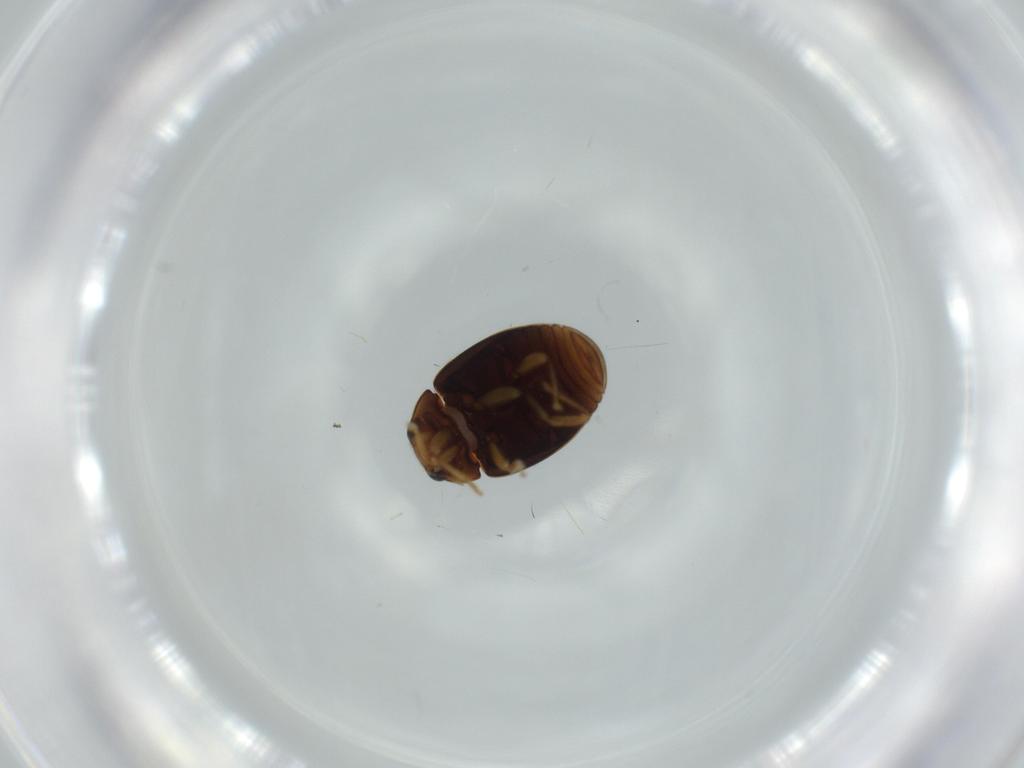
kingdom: Animalia
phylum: Arthropoda
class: Insecta
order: Coleoptera
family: Coccinellidae
